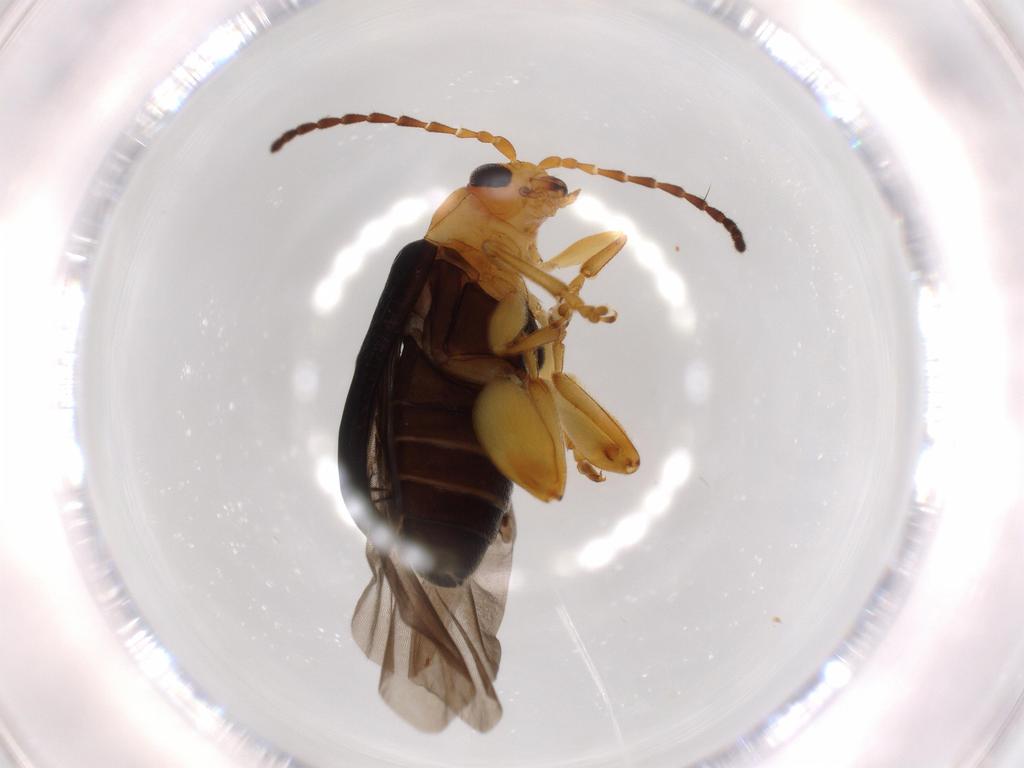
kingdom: Animalia
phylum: Arthropoda
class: Insecta
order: Coleoptera
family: Chrysomelidae
